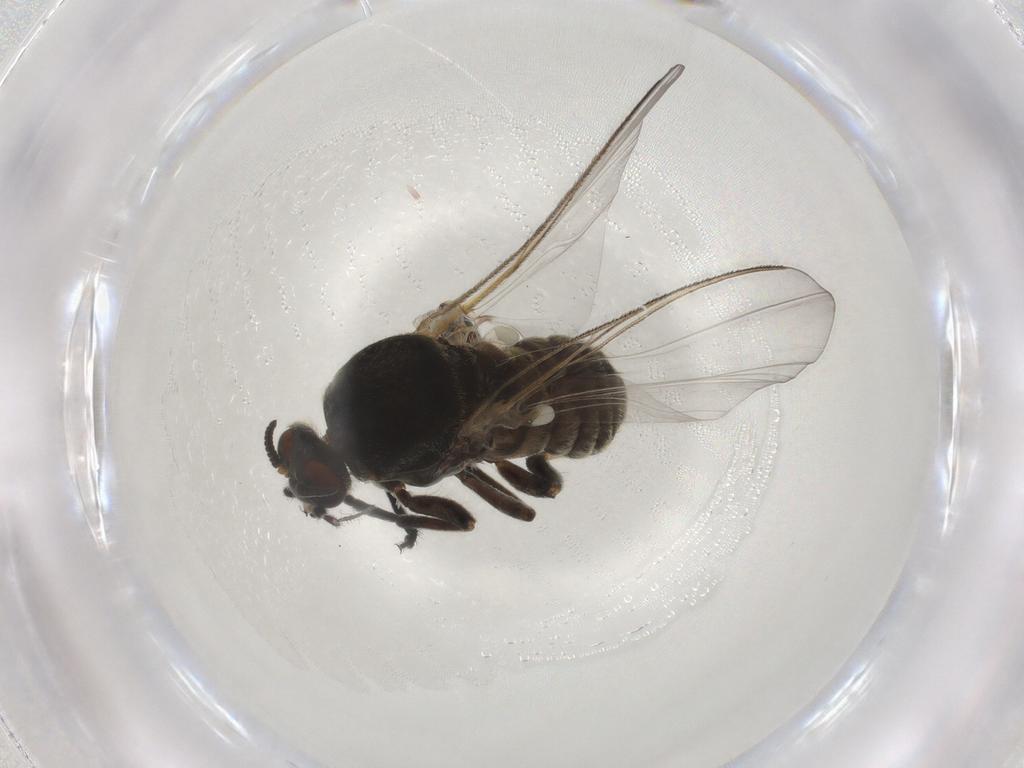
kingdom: Animalia
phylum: Arthropoda
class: Insecta
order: Diptera
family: Simuliidae
